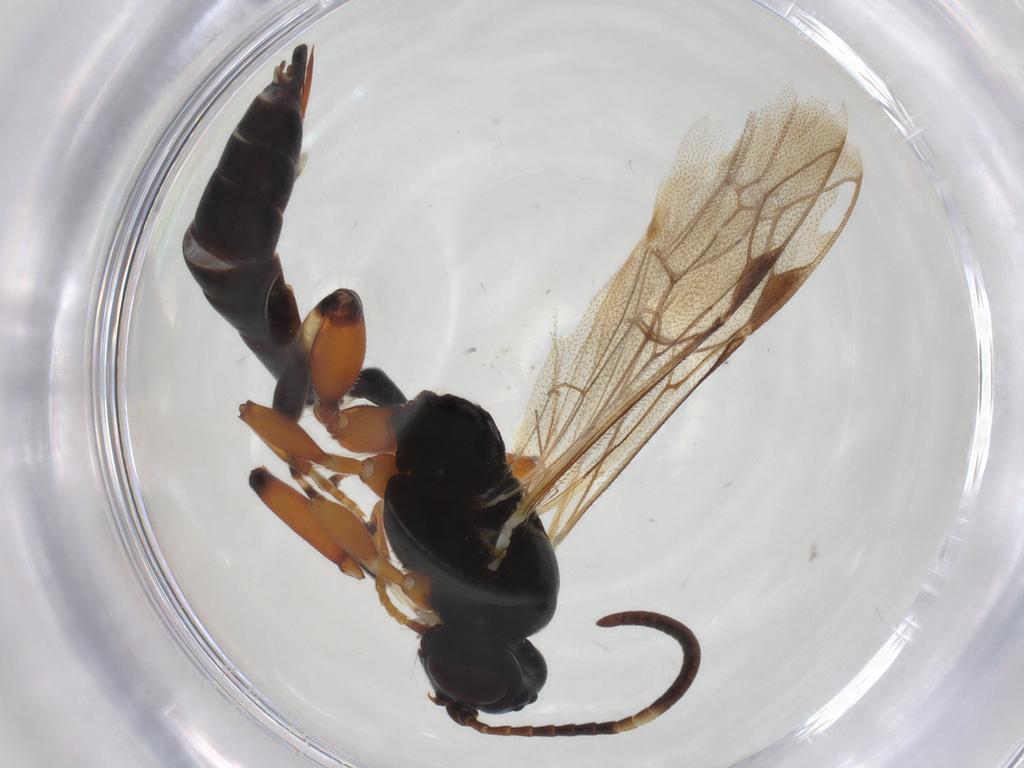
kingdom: Animalia
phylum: Arthropoda
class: Insecta
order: Hymenoptera
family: Ichneumonidae
